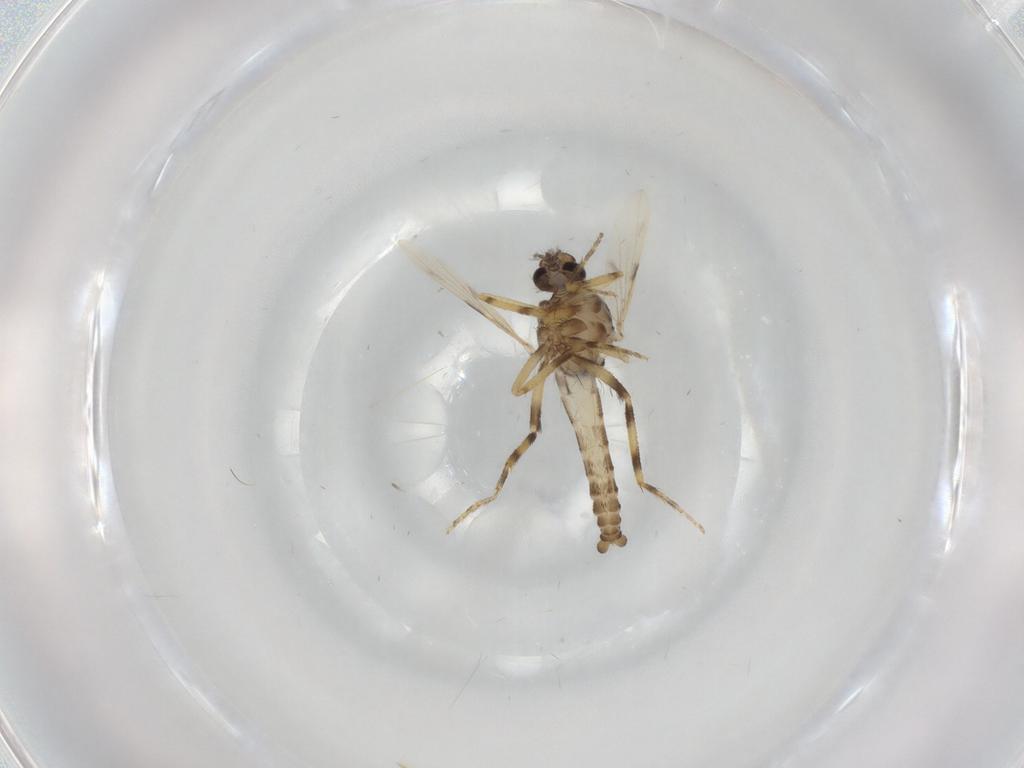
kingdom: Animalia
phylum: Arthropoda
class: Insecta
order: Diptera
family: Ceratopogonidae
